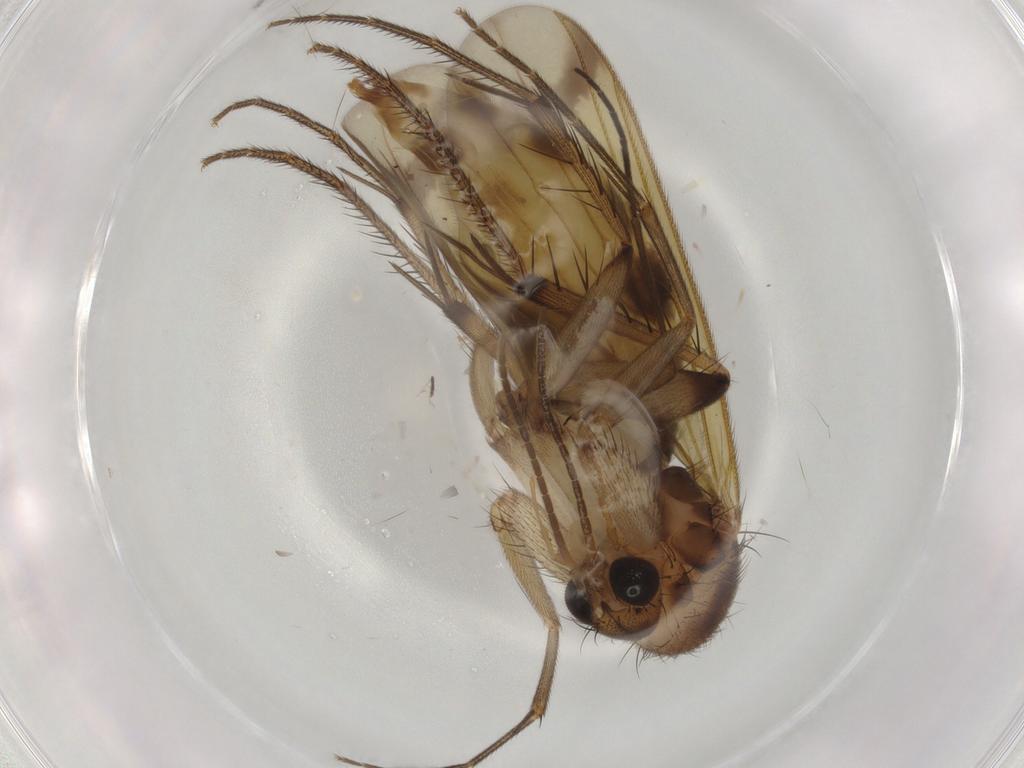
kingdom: Animalia
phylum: Arthropoda
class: Insecta
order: Diptera
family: Mycetophilidae
